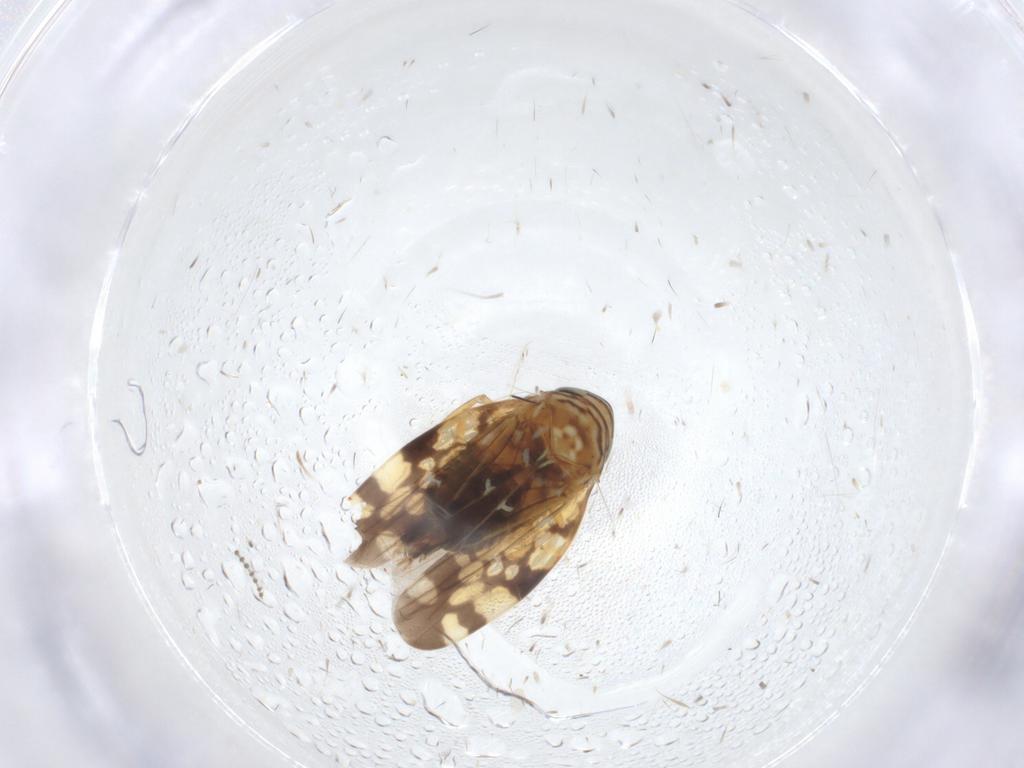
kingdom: Animalia
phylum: Arthropoda
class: Insecta
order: Hemiptera
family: Cicadellidae
